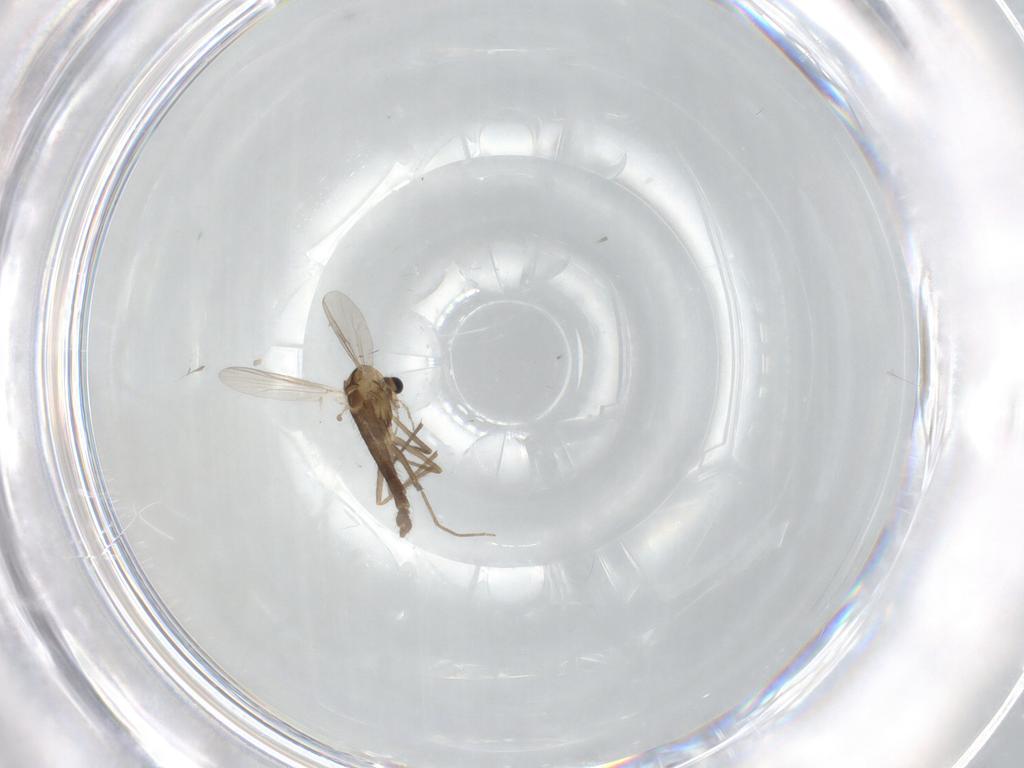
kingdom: Animalia
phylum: Arthropoda
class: Insecta
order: Diptera
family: Chironomidae
